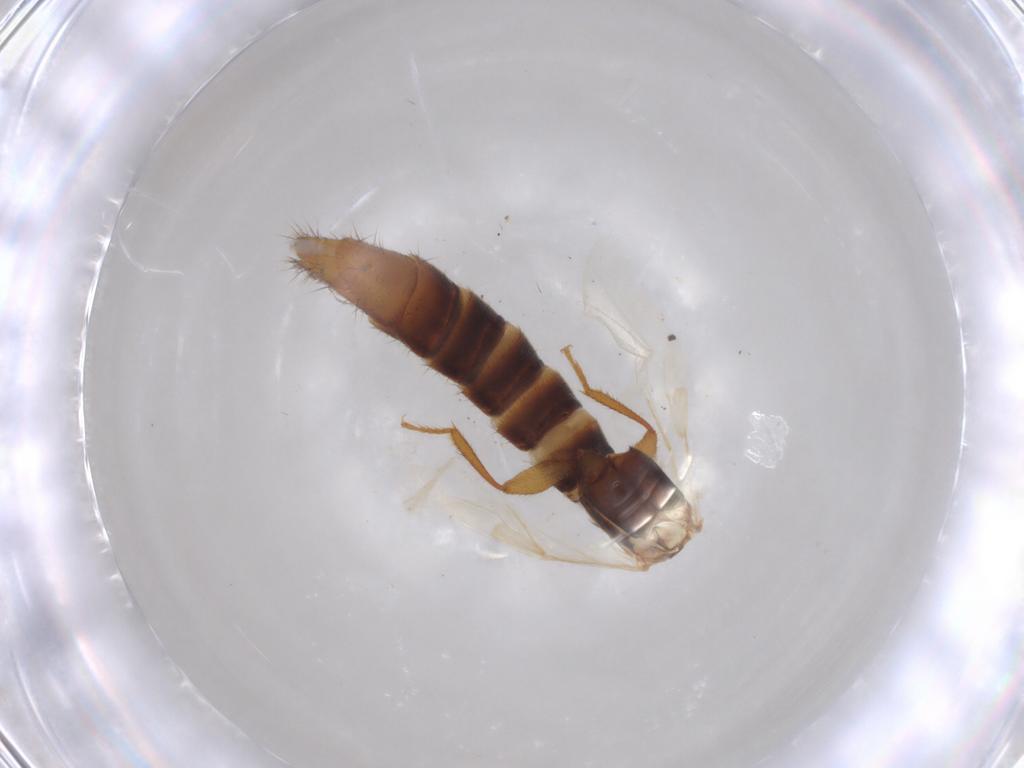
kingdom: Animalia
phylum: Arthropoda
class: Insecta
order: Coleoptera
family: Staphylinidae
